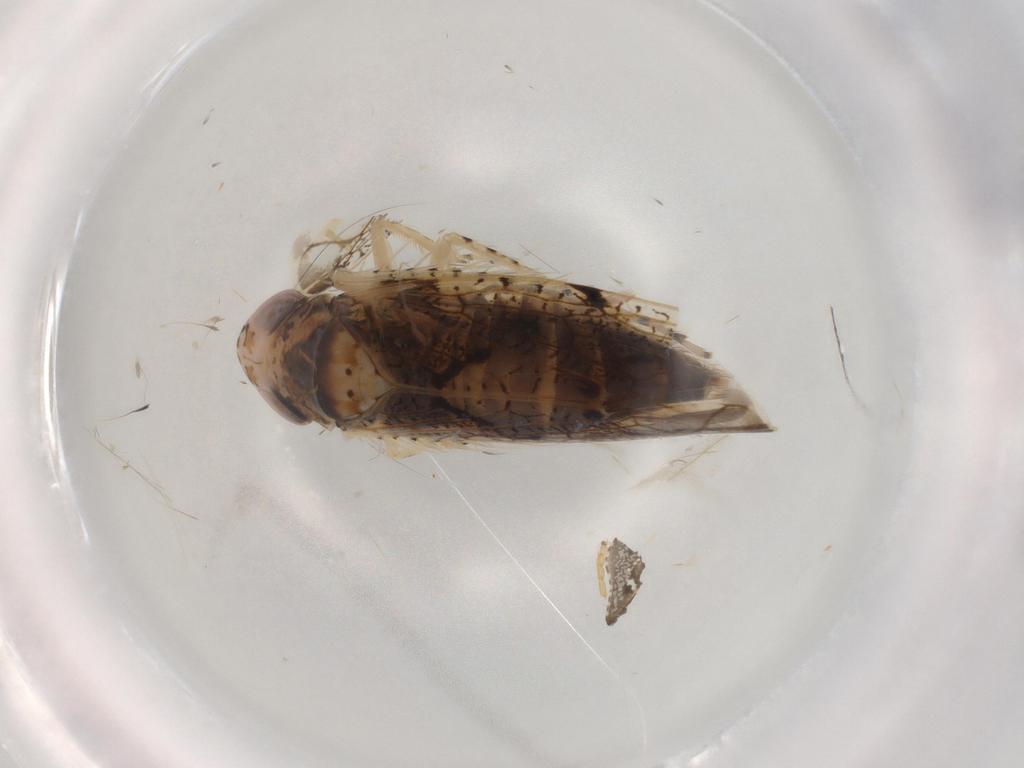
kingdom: Animalia
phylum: Arthropoda
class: Insecta
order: Hemiptera
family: Cicadellidae
